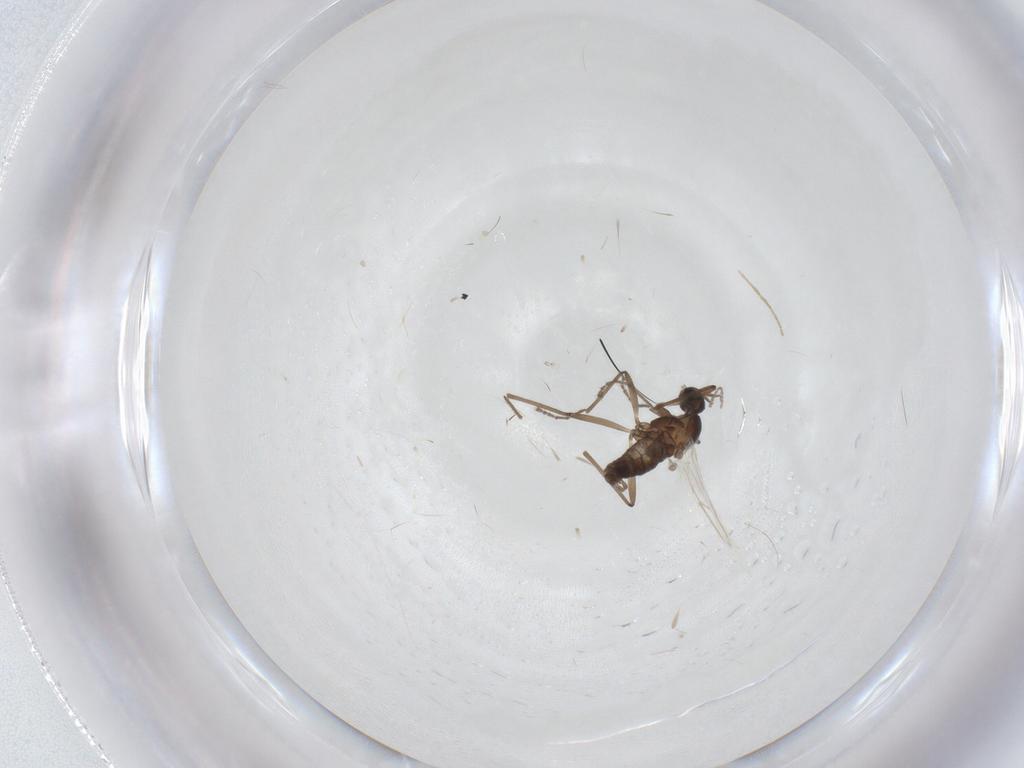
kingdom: Animalia
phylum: Arthropoda
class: Insecta
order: Diptera
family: Cecidomyiidae
